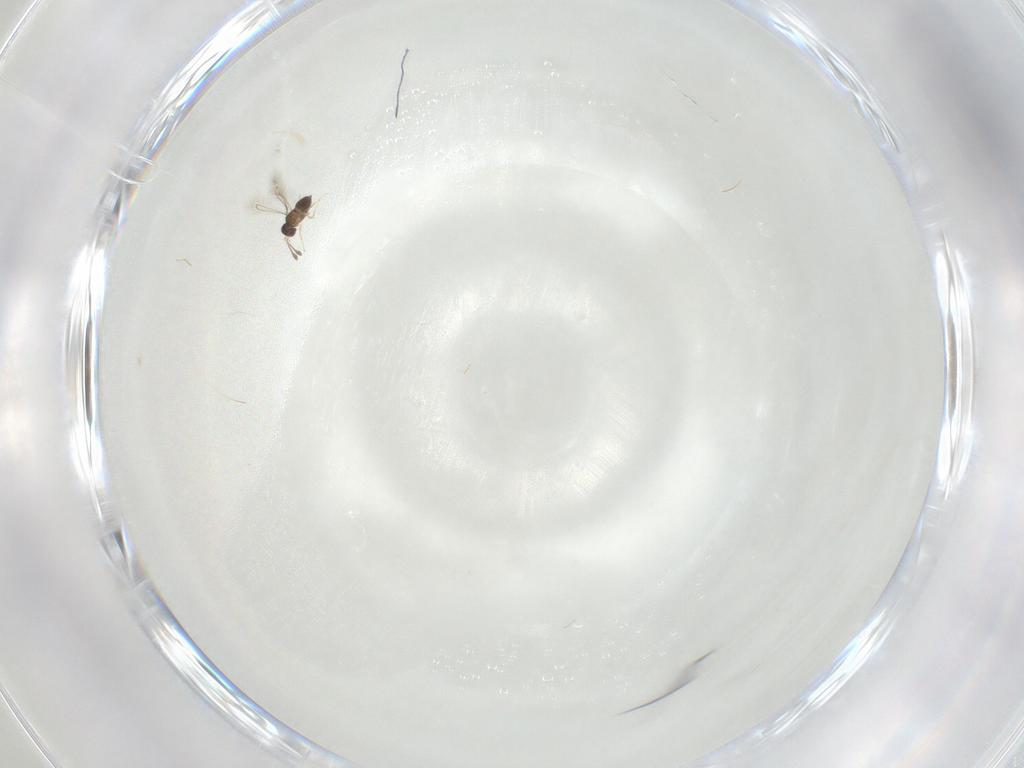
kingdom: Animalia
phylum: Arthropoda
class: Insecta
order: Hymenoptera
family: Mymaridae
